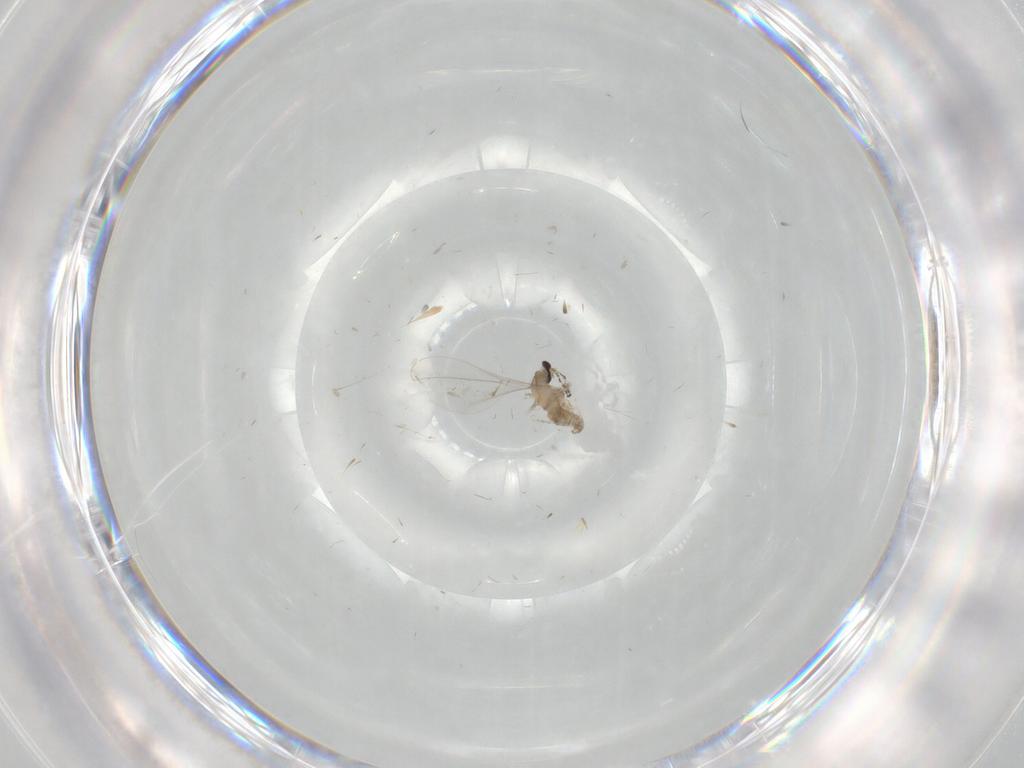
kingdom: Animalia
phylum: Arthropoda
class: Insecta
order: Diptera
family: Cecidomyiidae
